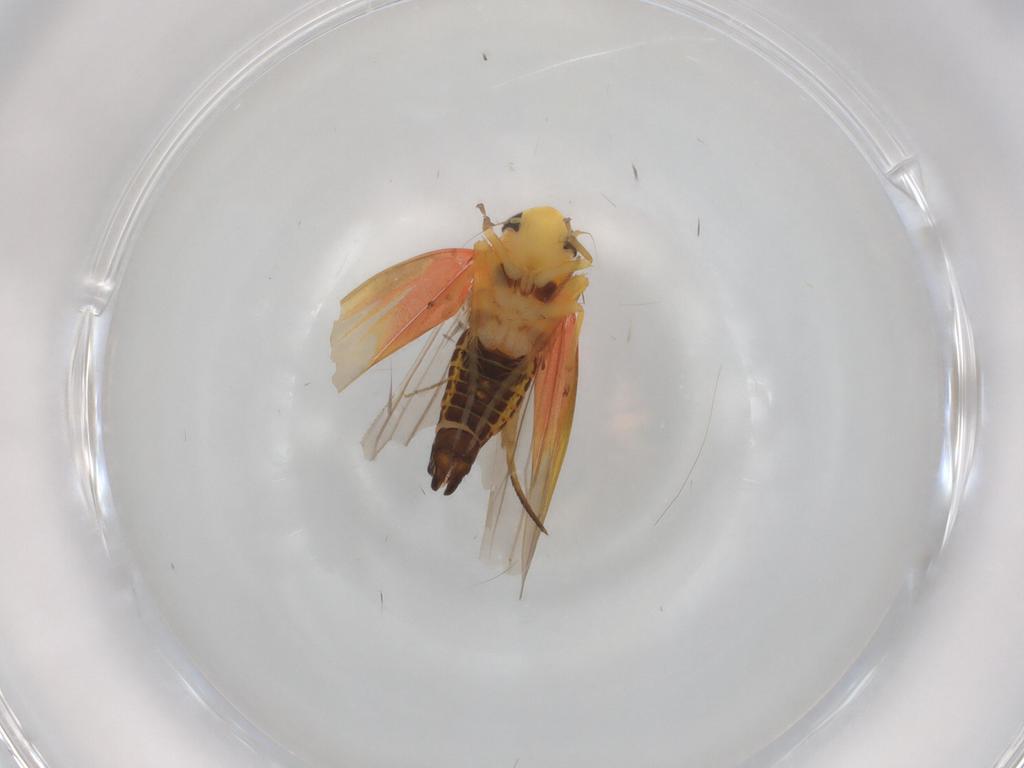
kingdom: Animalia
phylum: Arthropoda
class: Insecta
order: Hemiptera
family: Cicadellidae
